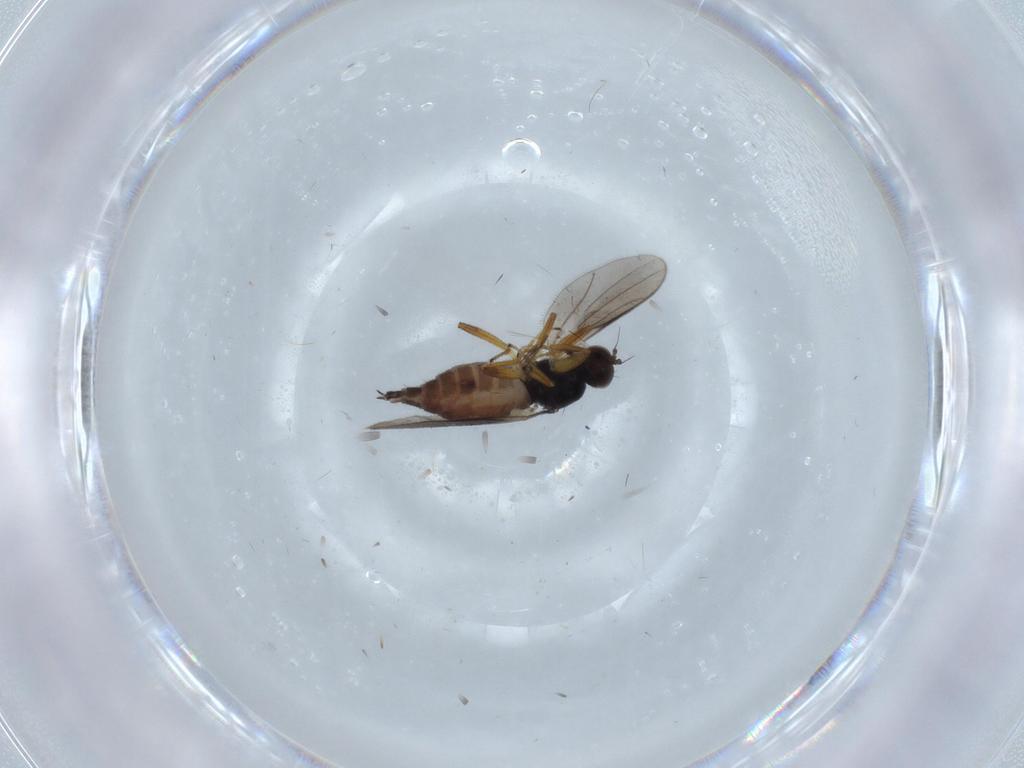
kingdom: Animalia
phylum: Arthropoda
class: Insecta
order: Diptera
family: Hybotidae
